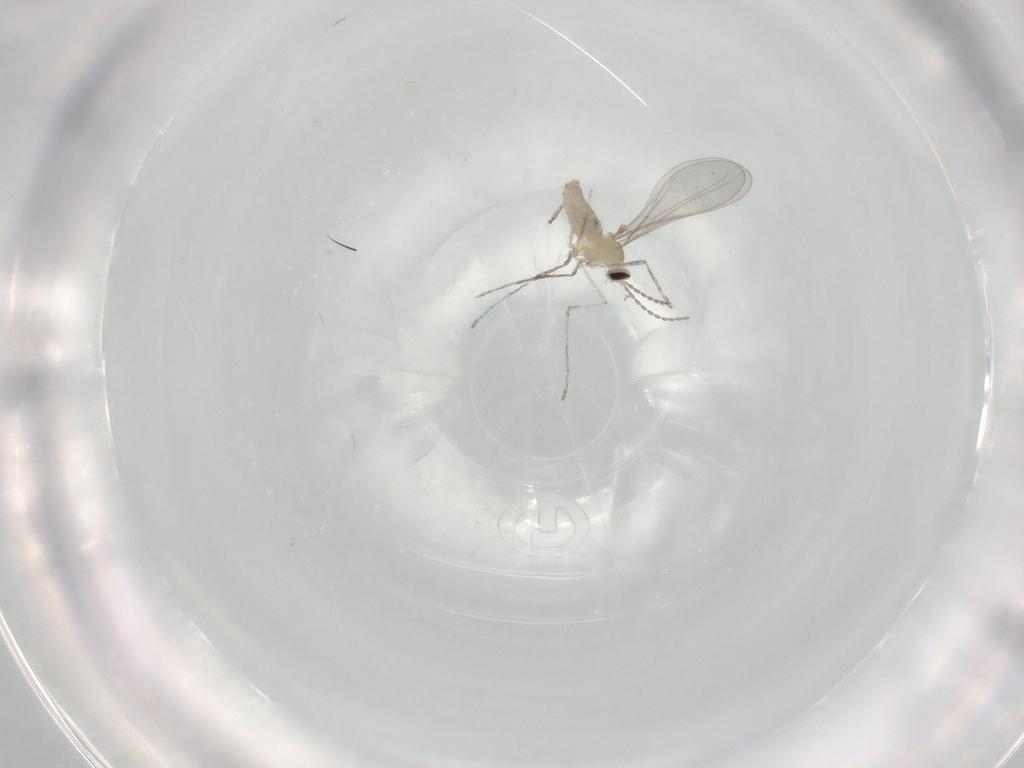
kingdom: Animalia
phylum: Arthropoda
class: Insecta
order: Diptera
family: Cecidomyiidae
